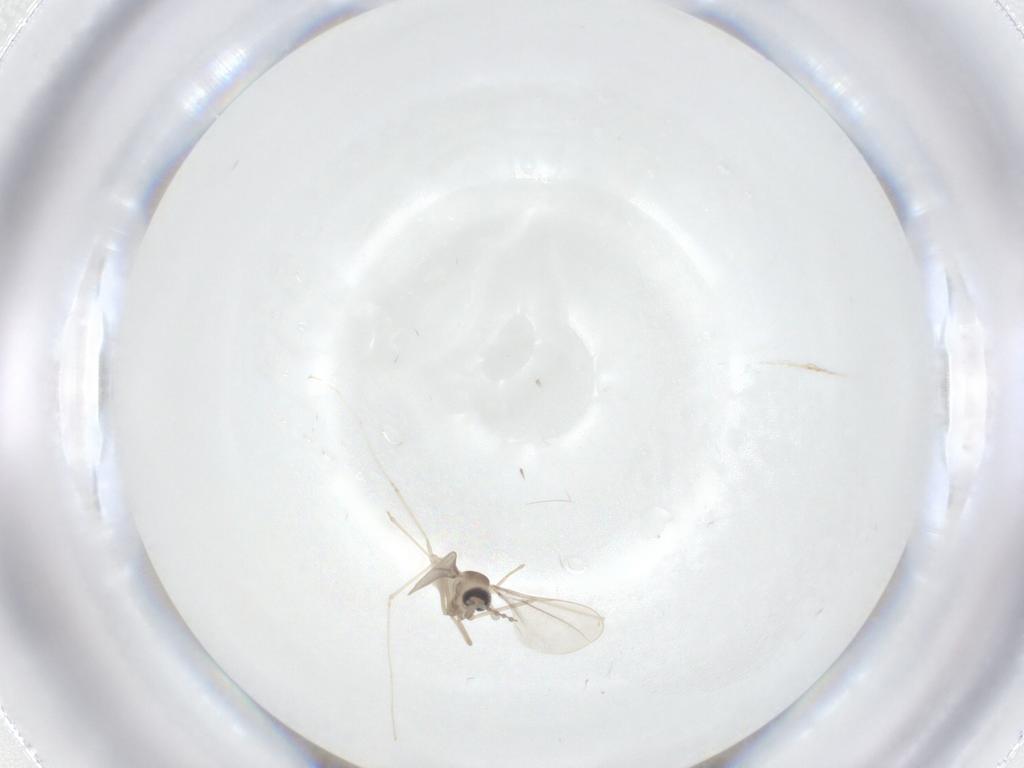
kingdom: Animalia
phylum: Arthropoda
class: Insecta
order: Diptera
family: Cecidomyiidae
